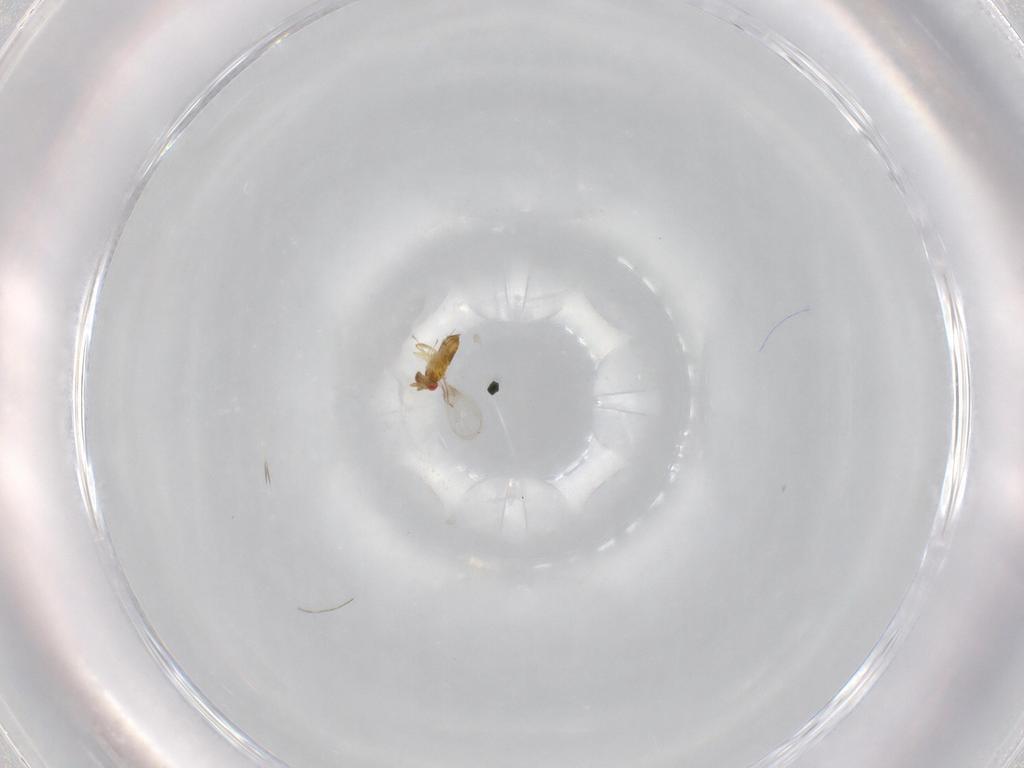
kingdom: Animalia
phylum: Arthropoda
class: Insecta
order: Hymenoptera
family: Trichogrammatidae
